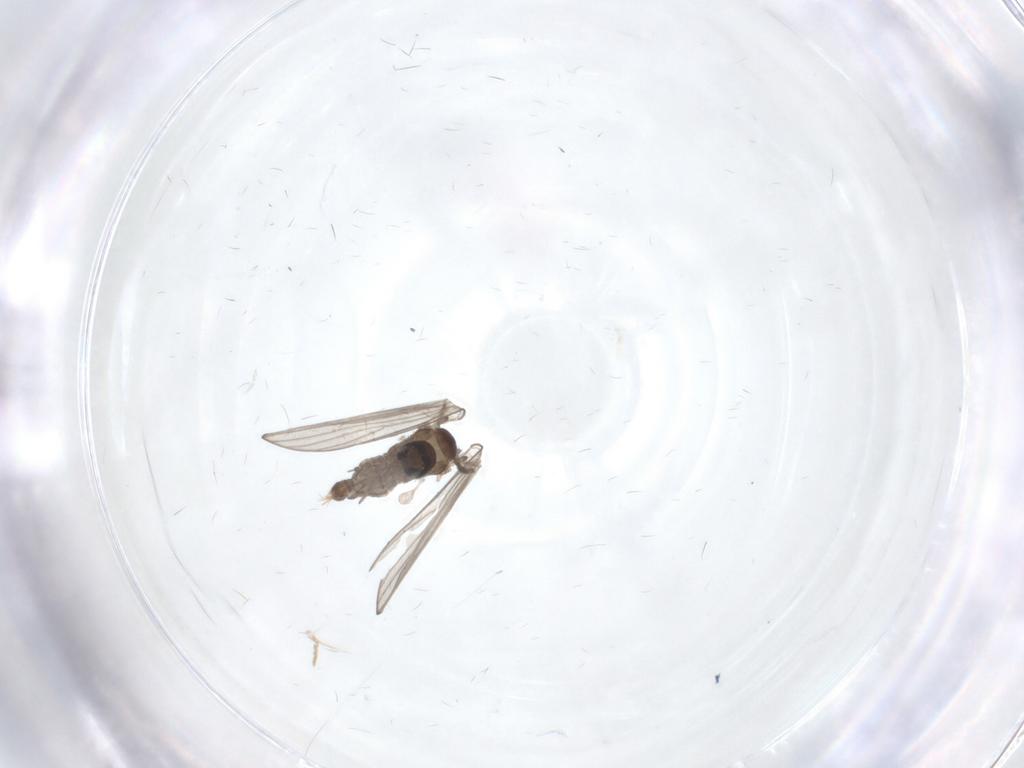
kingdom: Animalia
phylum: Arthropoda
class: Insecta
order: Diptera
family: Psychodidae
